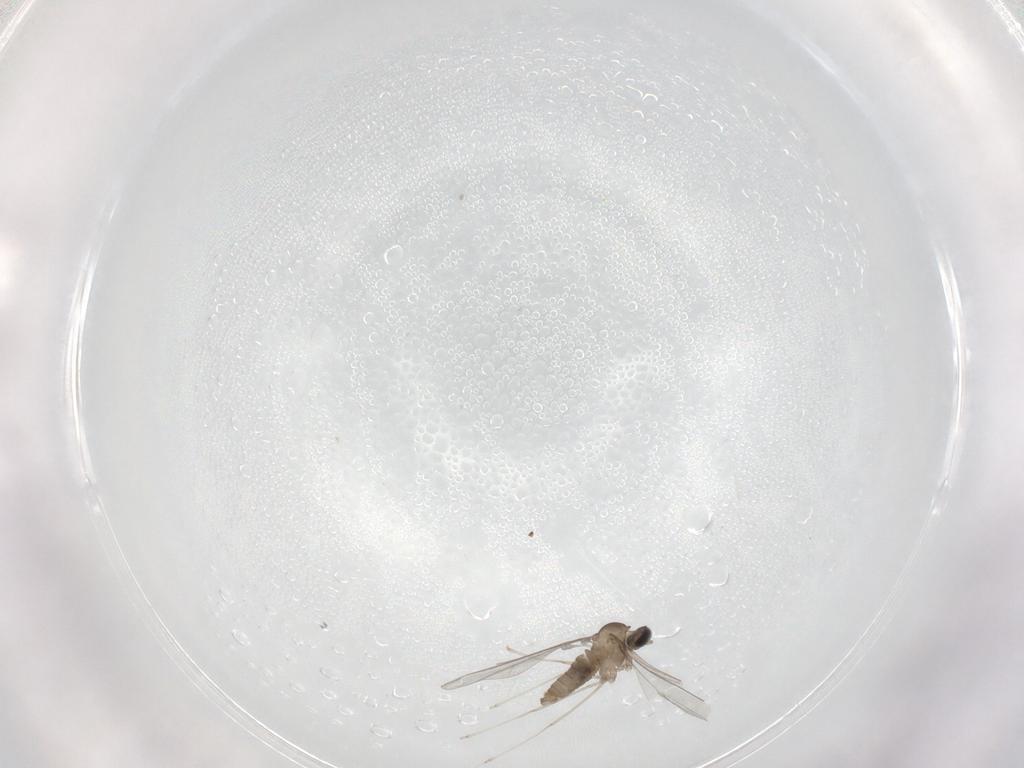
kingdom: Animalia
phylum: Arthropoda
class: Insecta
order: Diptera
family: Cecidomyiidae
